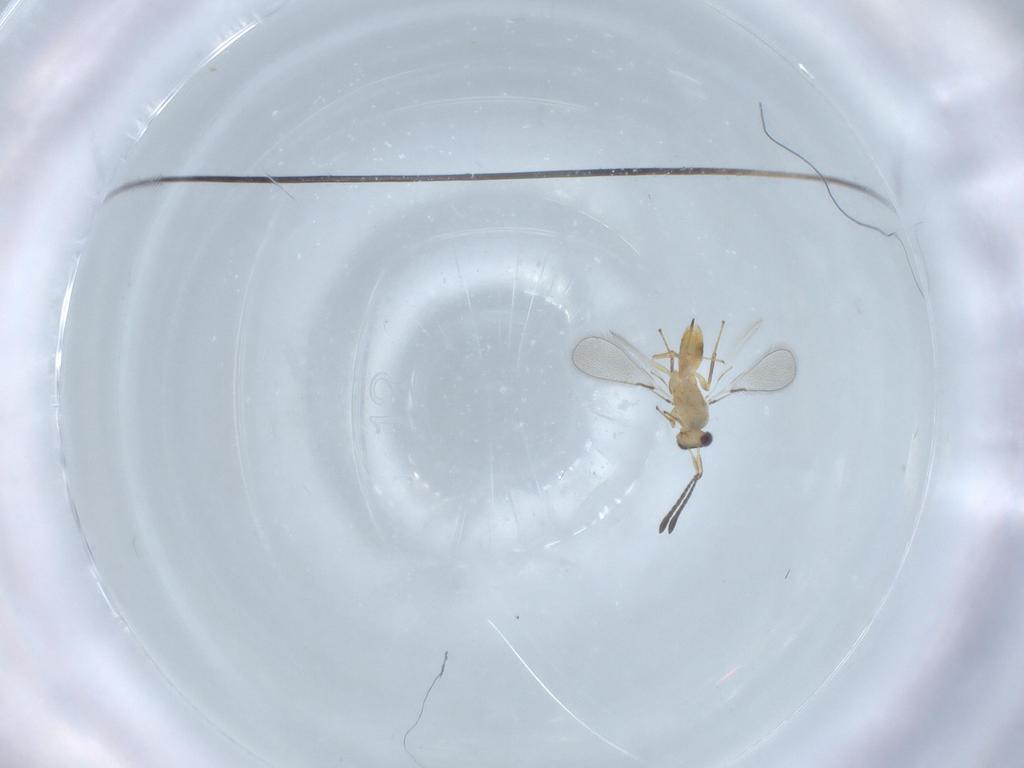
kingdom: Animalia
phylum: Arthropoda
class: Insecta
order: Hymenoptera
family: Mymaridae
